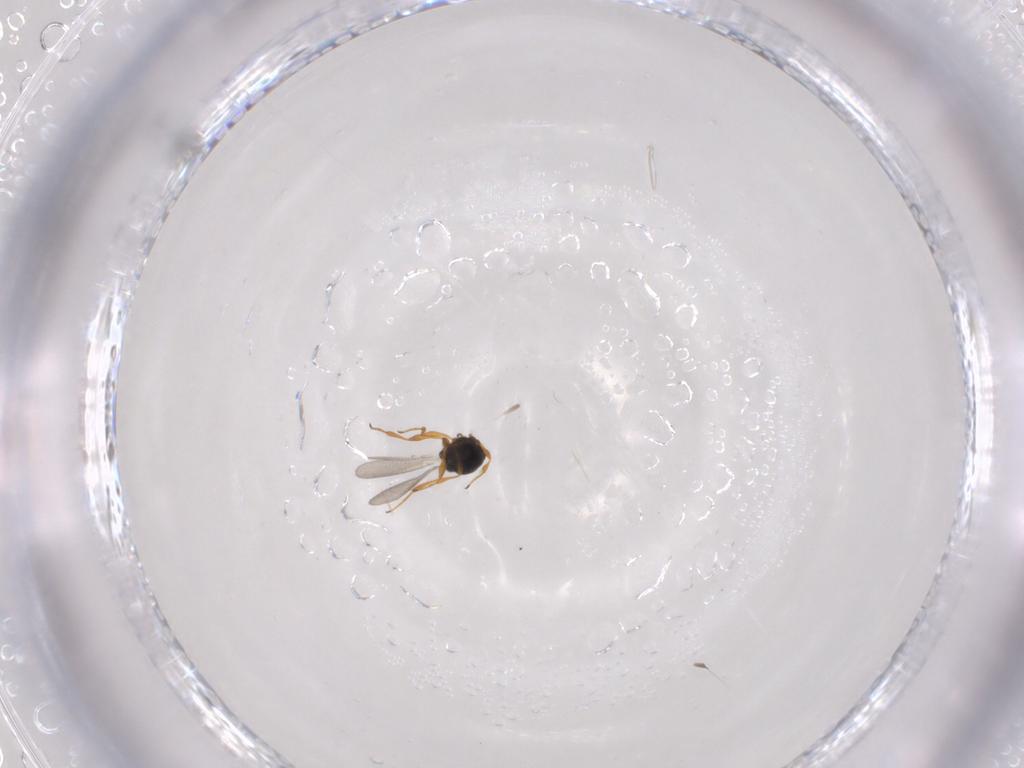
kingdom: Animalia
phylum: Arthropoda
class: Insecta
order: Hymenoptera
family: Platygastridae
